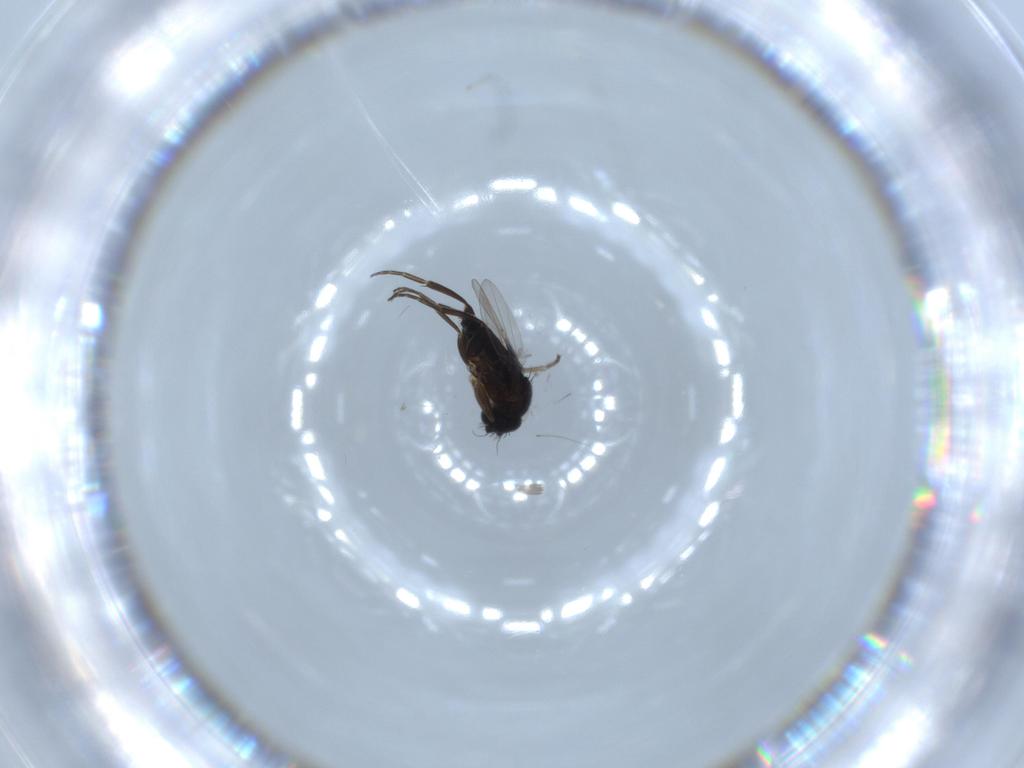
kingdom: Animalia
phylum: Arthropoda
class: Insecta
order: Diptera
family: Phoridae
